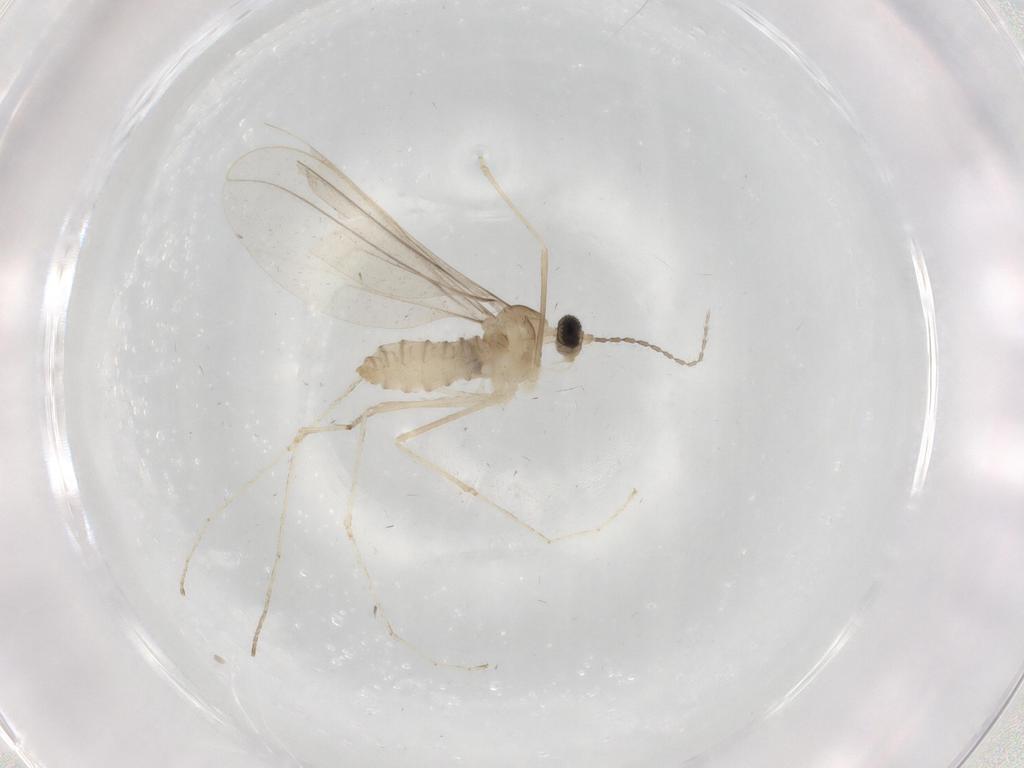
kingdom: Animalia
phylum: Arthropoda
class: Insecta
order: Diptera
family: Cecidomyiidae
